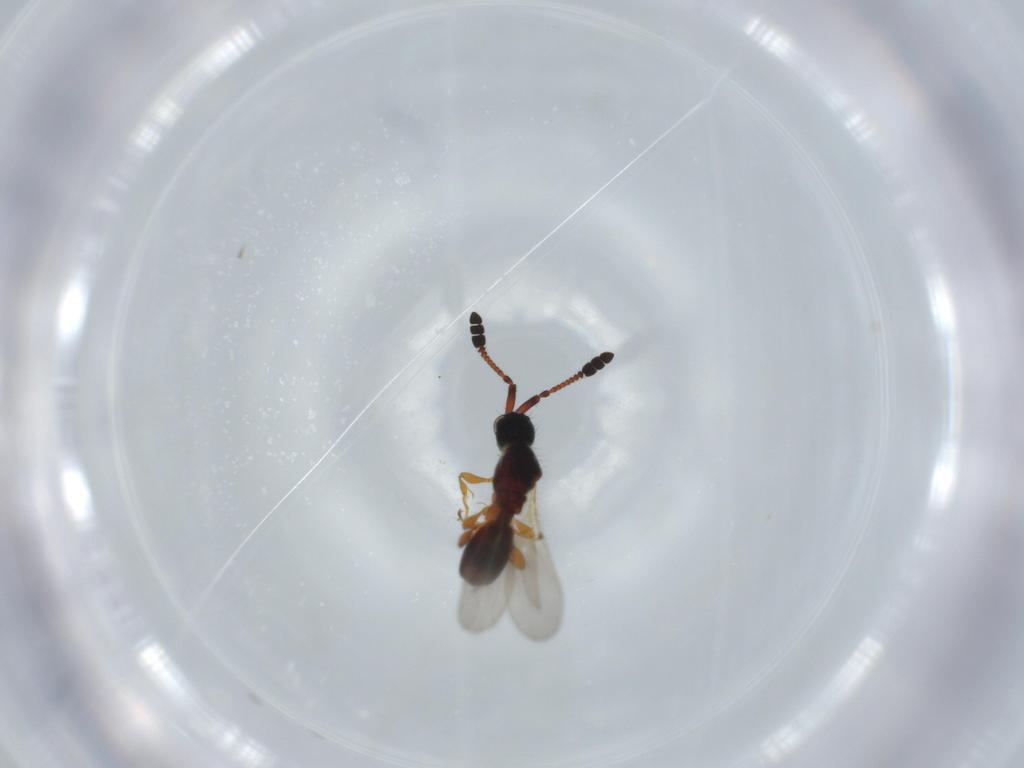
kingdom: Animalia
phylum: Arthropoda
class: Insecta
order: Hymenoptera
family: Diapriidae
